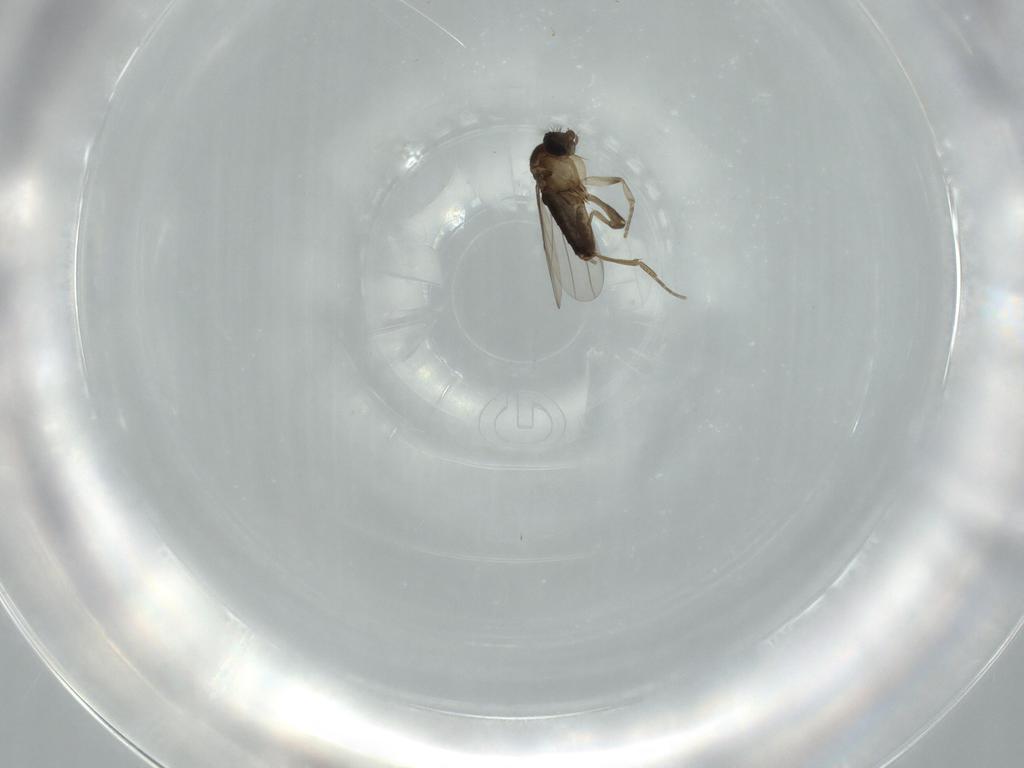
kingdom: Animalia
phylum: Arthropoda
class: Insecta
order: Diptera
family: Phoridae
